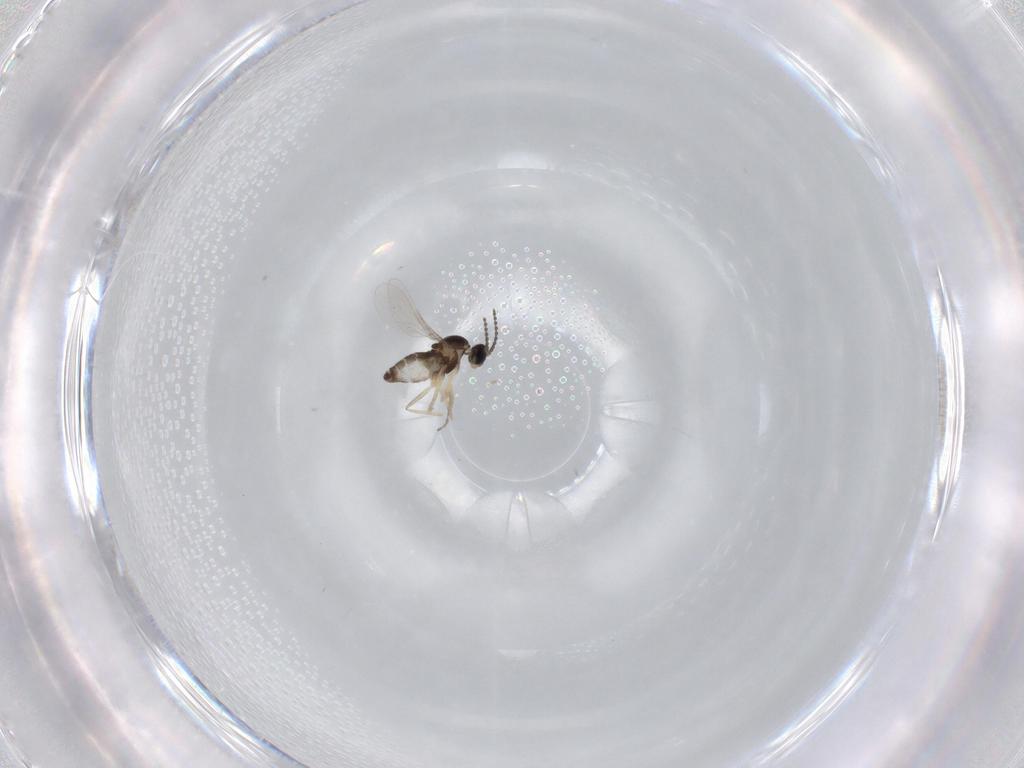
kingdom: Animalia
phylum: Arthropoda
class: Insecta
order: Diptera
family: Cecidomyiidae
